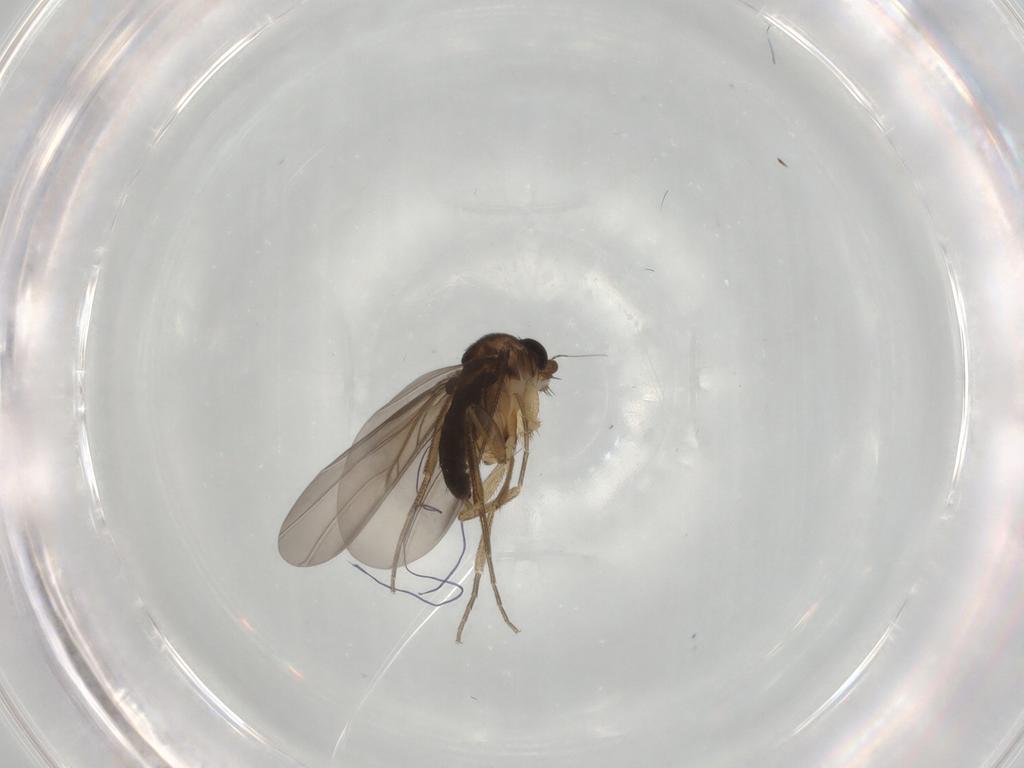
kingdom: Animalia
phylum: Arthropoda
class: Insecta
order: Diptera
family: Phoridae
